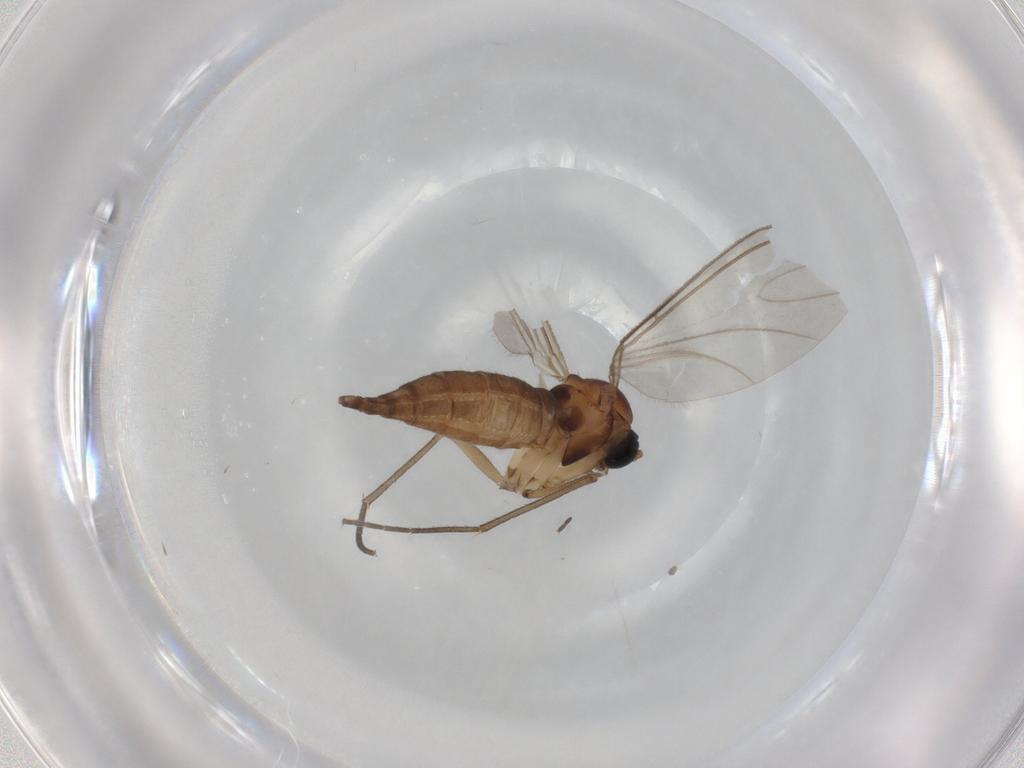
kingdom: Animalia
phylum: Arthropoda
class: Insecta
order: Diptera
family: Sciaridae
